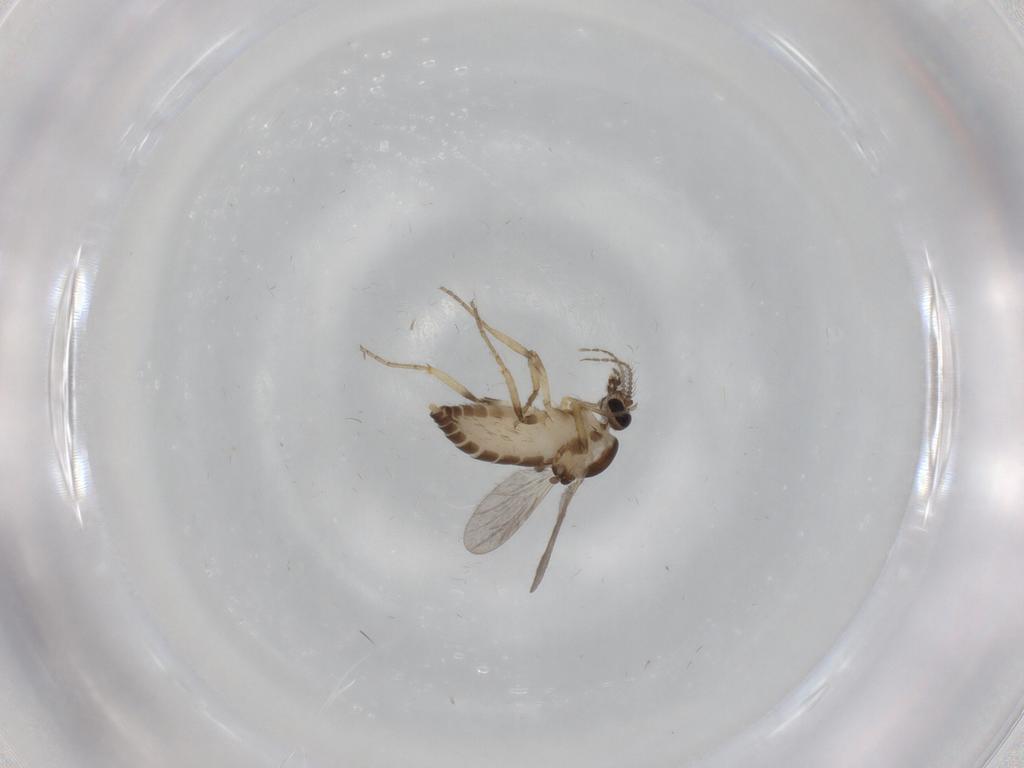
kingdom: Animalia
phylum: Arthropoda
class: Insecta
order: Diptera
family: Ceratopogonidae
